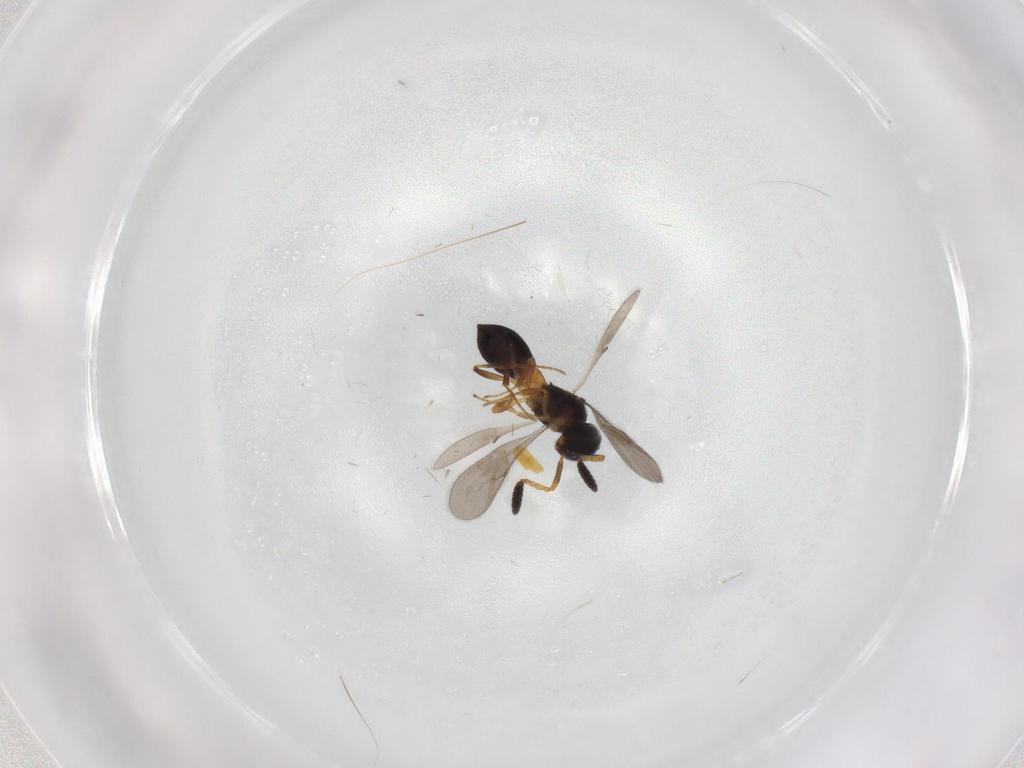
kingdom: Animalia
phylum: Arthropoda
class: Insecta
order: Hymenoptera
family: Scelionidae
